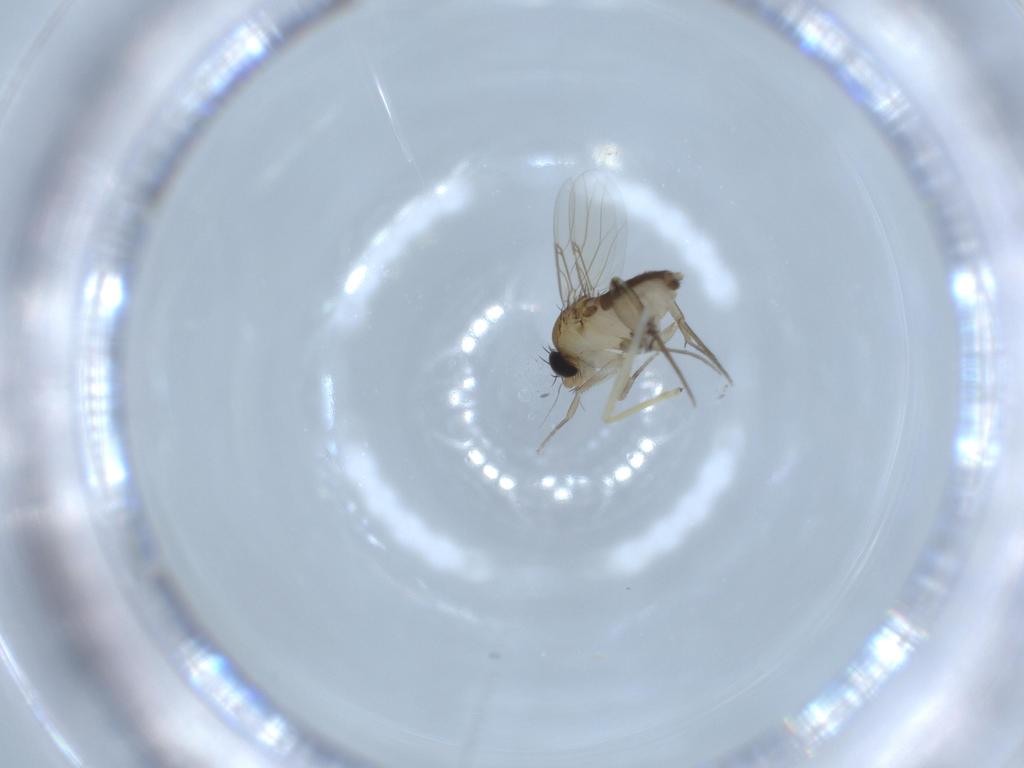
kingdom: Animalia
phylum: Arthropoda
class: Insecta
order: Diptera
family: Phoridae
